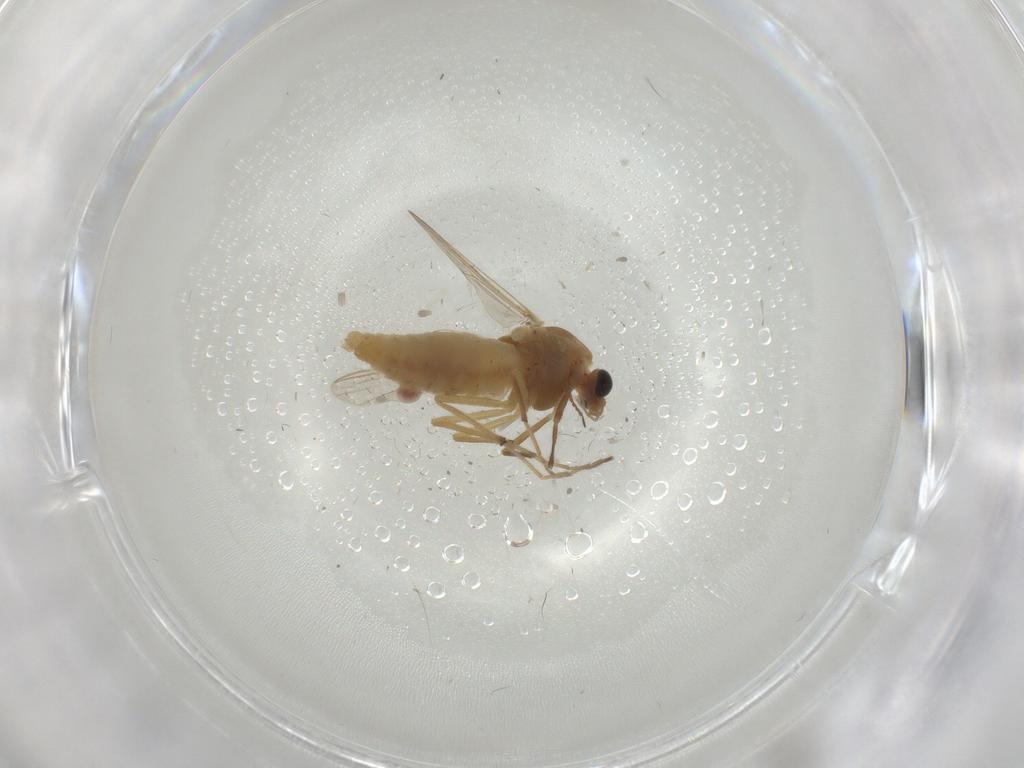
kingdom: Animalia
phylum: Arthropoda
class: Insecta
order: Diptera
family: Chironomidae
